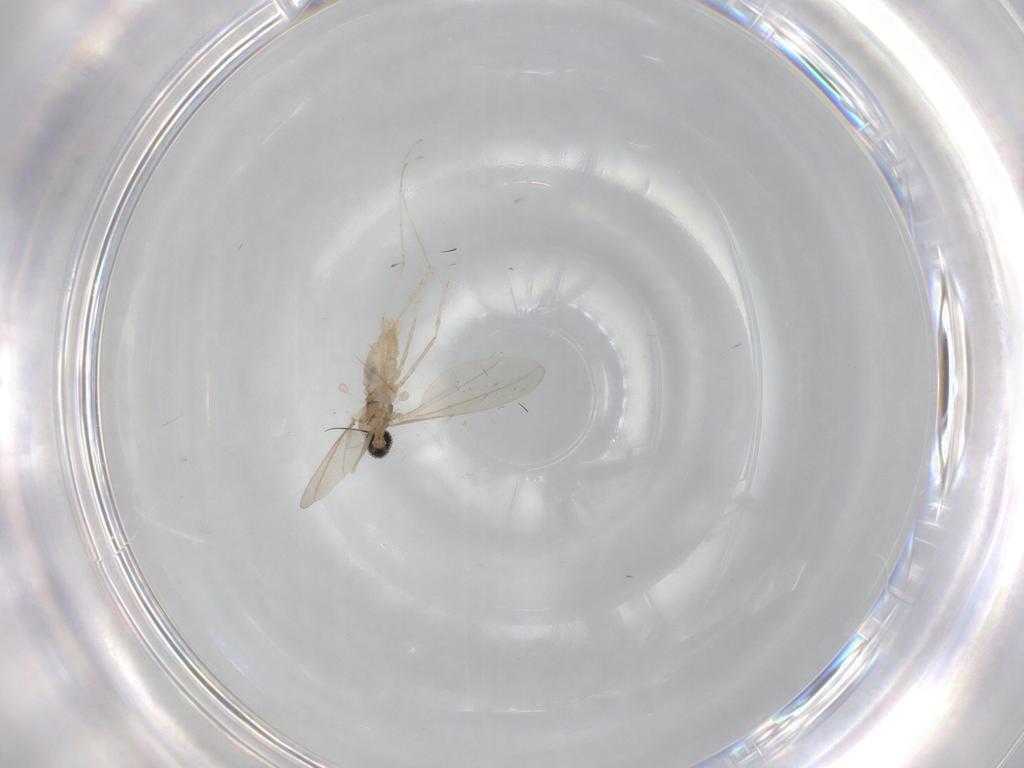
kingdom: Animalia
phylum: Arthropoda
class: Insecta
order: Diptera
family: Cecidomyiidae
